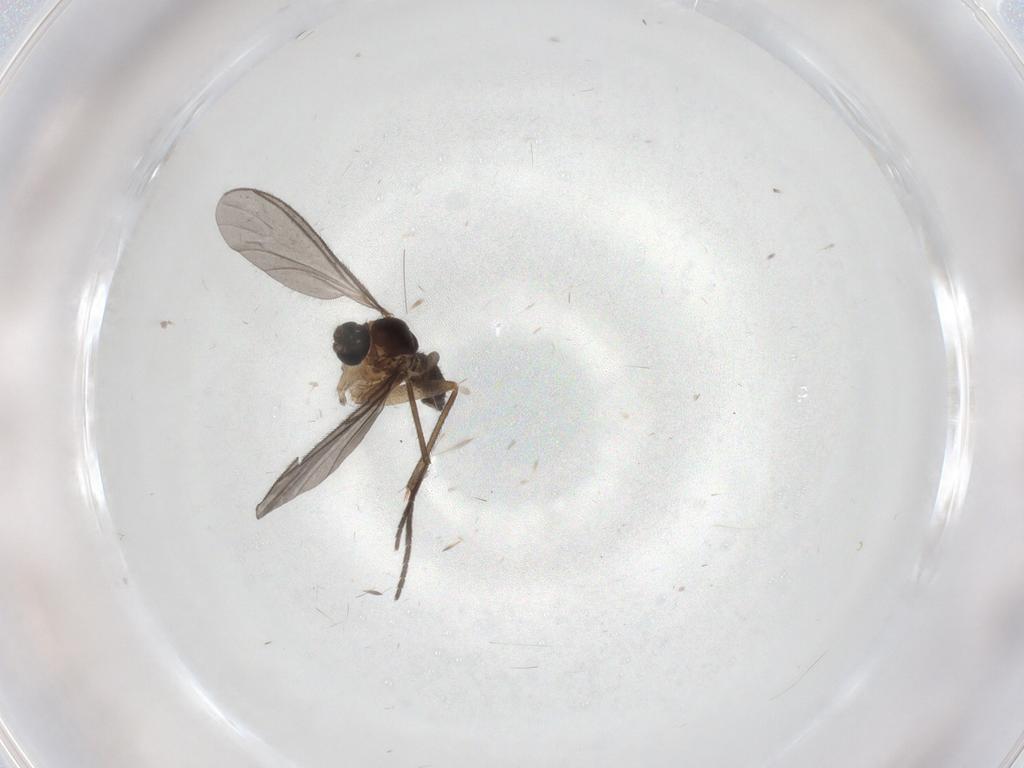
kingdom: Animalia
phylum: Arthropoda
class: Insecta
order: Diptera
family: Sciaridae
